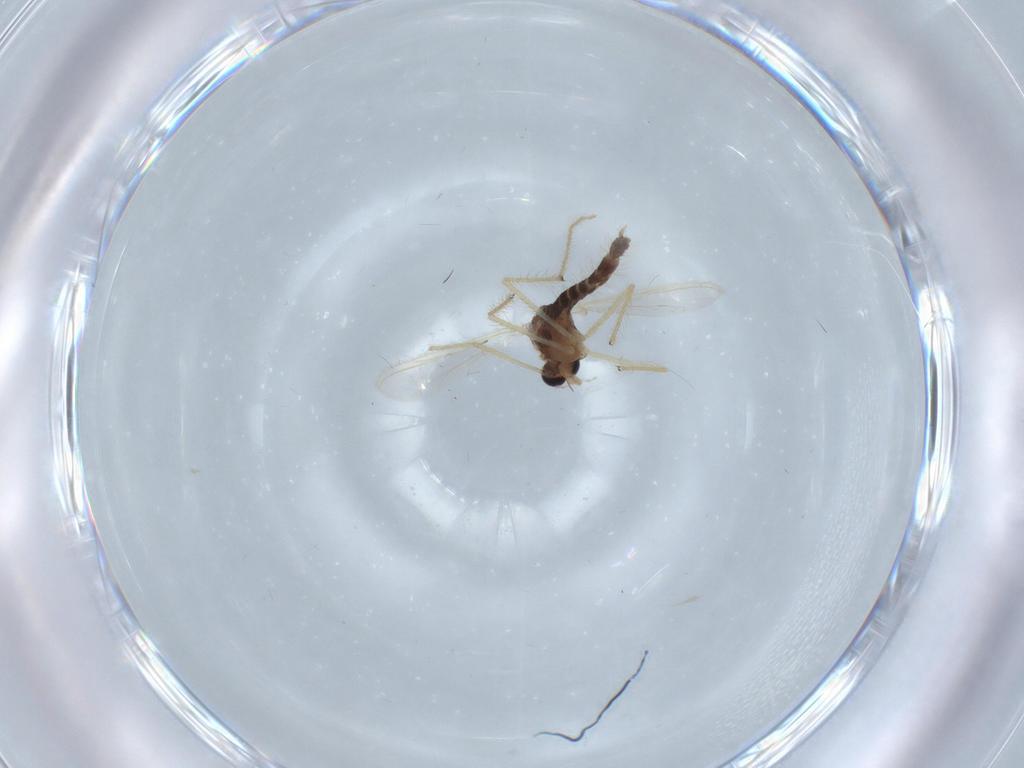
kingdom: Animalia
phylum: Arthropoda
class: Insecta
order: Diptera
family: Chironomidae
